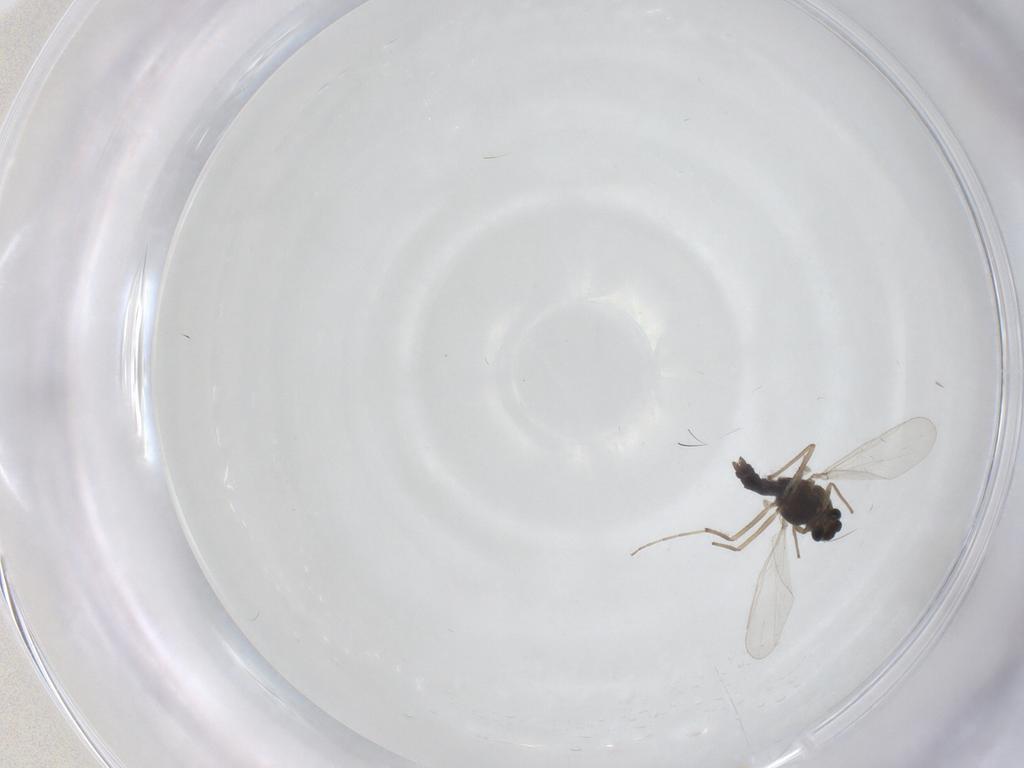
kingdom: Animalia
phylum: Arthropoda
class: Insecta
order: Diptera
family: Chironomidae
